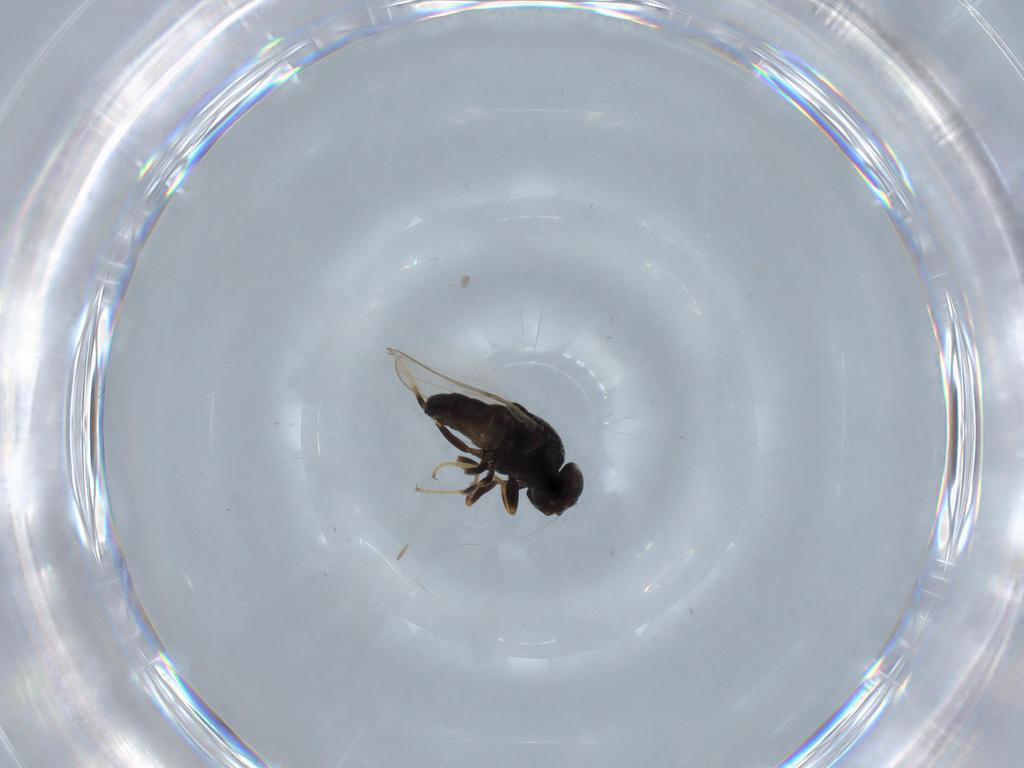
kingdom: Animalia
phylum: Arthropoda
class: Insecta
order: Diptera
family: Chloropidae
